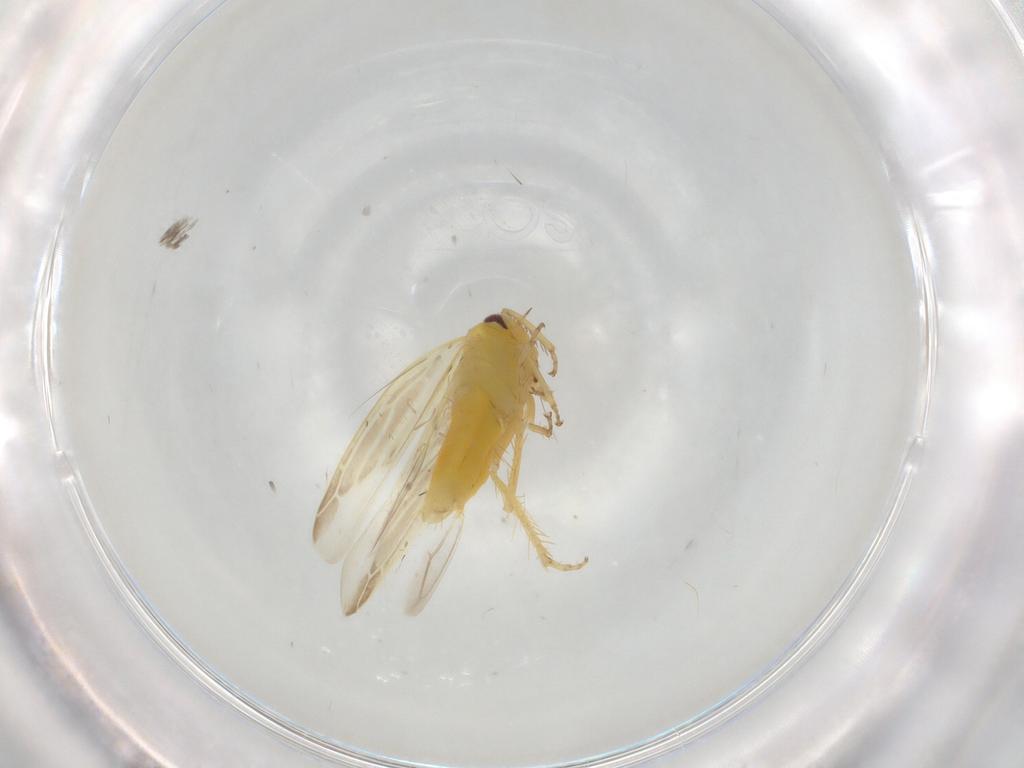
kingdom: Animalia
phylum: Arthropoda
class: Insecta
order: Hemiptera
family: Cicadellidae
